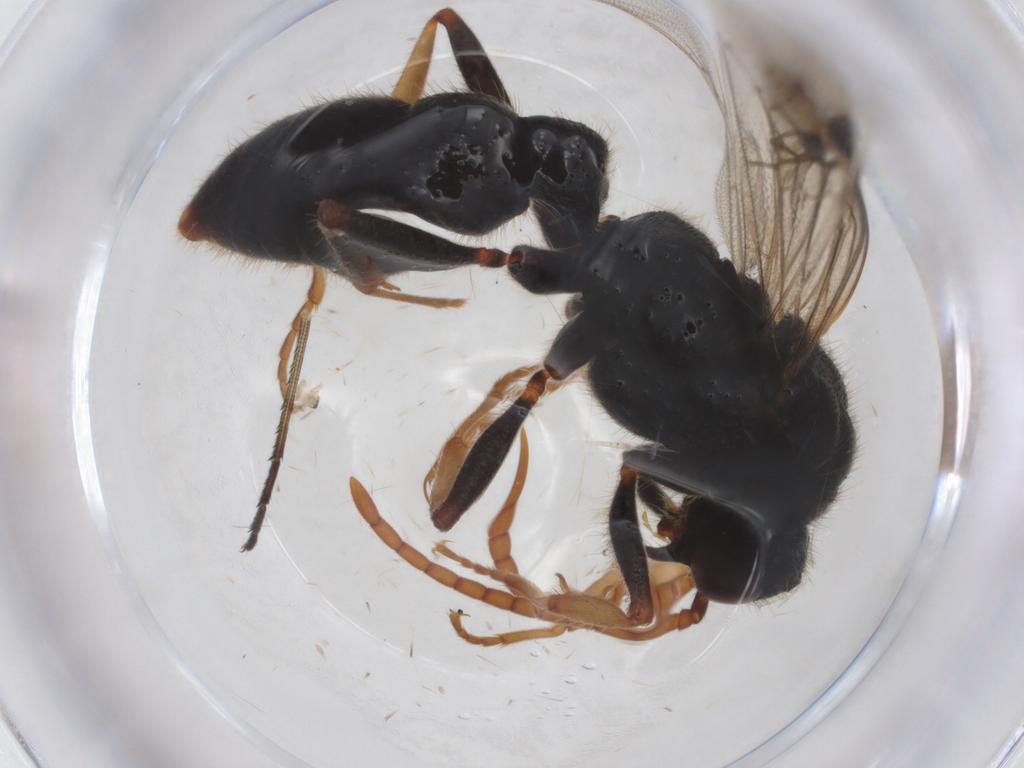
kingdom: Animalia
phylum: Arthropoda
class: Insecta
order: Hymenoptera
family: Formicidae
